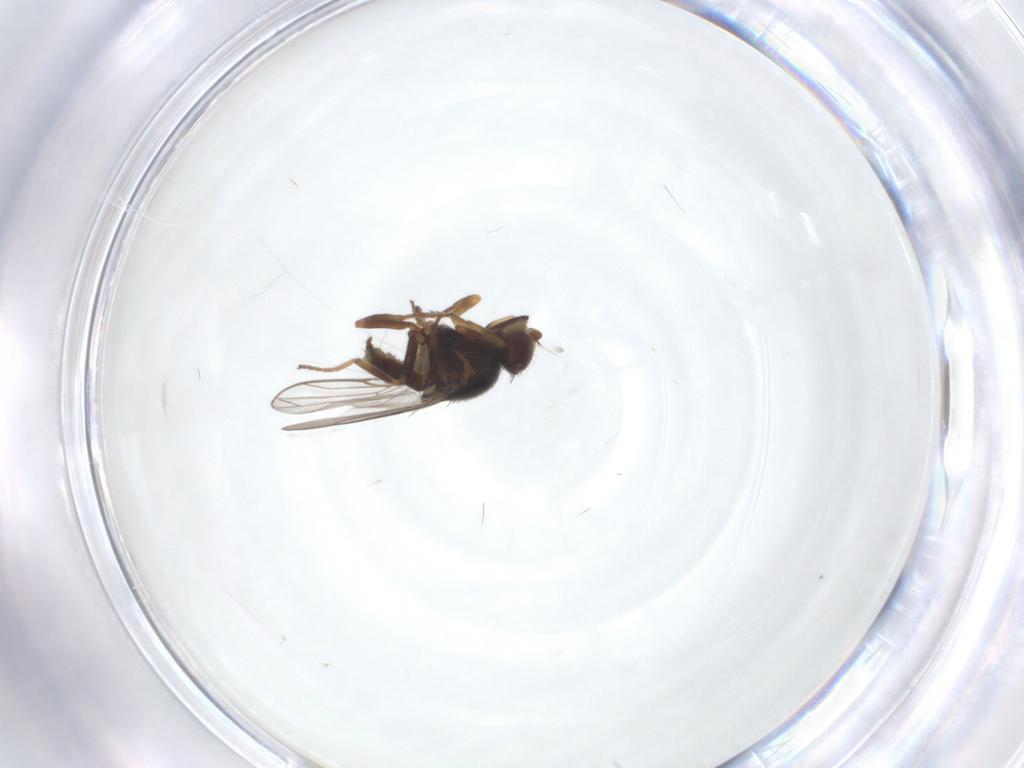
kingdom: Animalia
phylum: Arthropoda
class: Insecta
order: Diptera
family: Chloropidae
